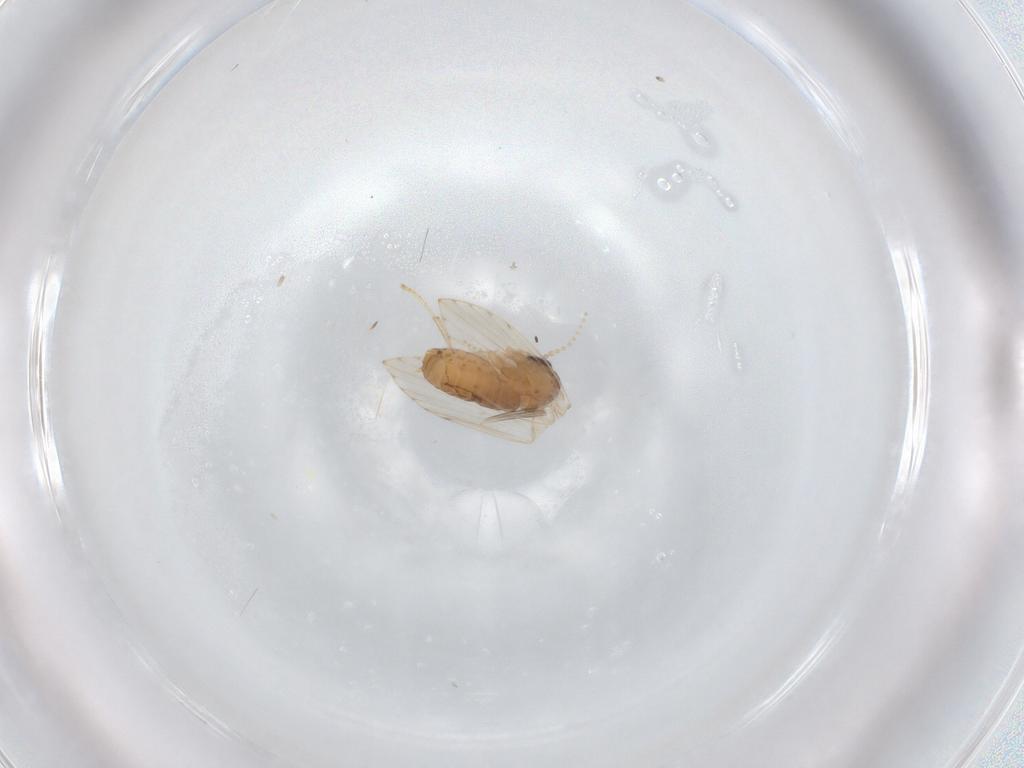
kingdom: Animalia
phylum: Arthropoda
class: Insecta
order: Diptera
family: Psychodidae
